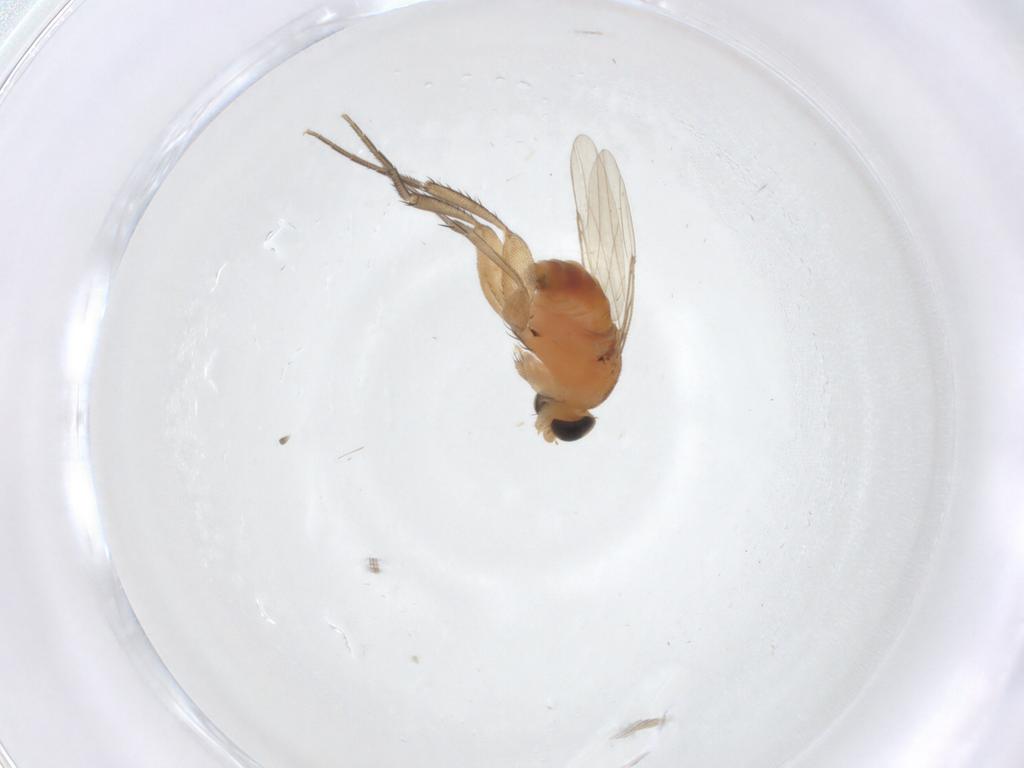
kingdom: Animalia
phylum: Arthropoda
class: Insecta
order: Diptera
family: Phoridae
